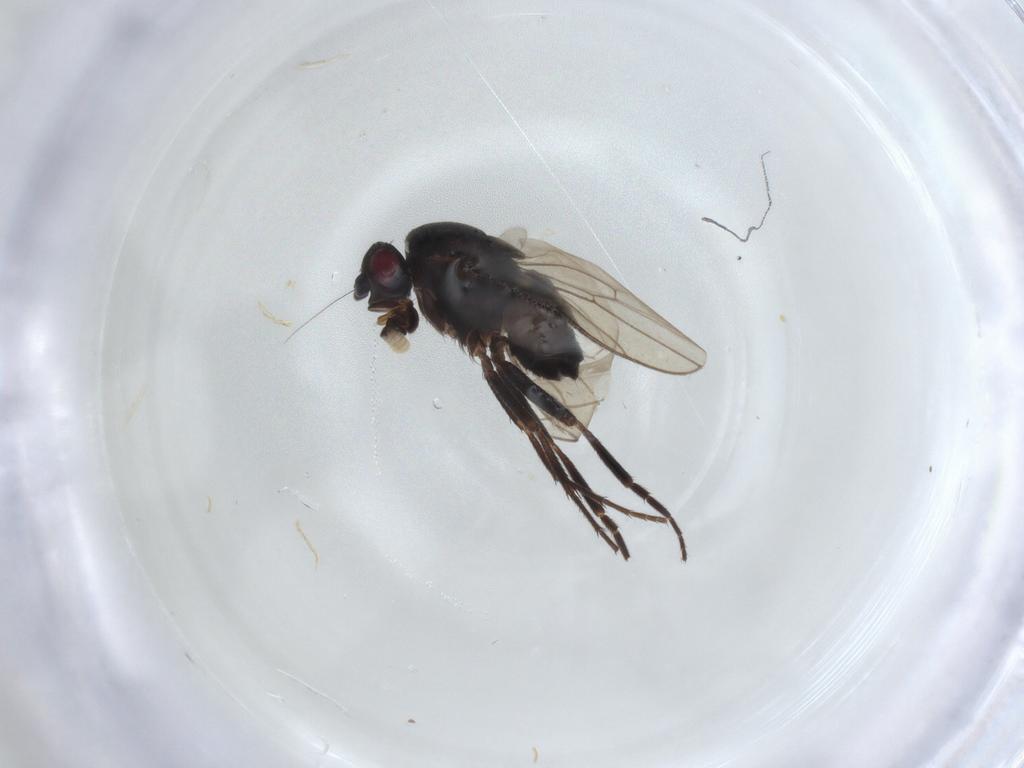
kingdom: Animalia
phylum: Arthropoda
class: Insecta
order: Diptera
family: Sphaeroceridae
